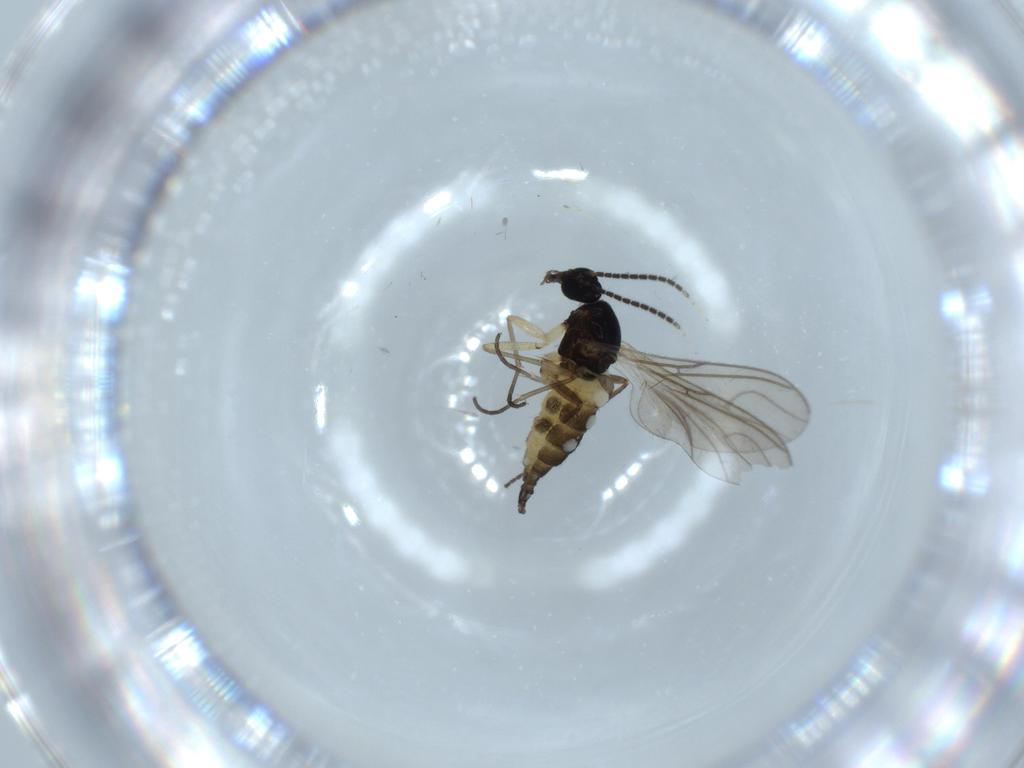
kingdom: Animalia
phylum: Arthropoda
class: Insecta
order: Diptera
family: Sciaridae
